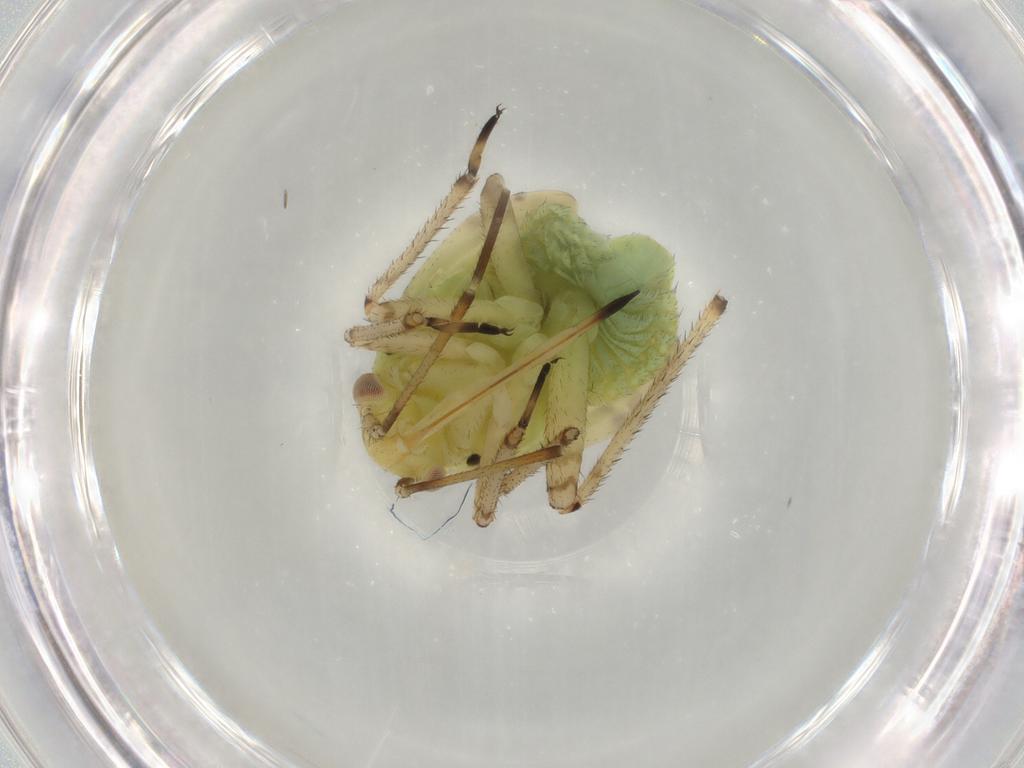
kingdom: Animalia
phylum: Arthropoda
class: Insecta
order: Hemiptera
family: Miridae
